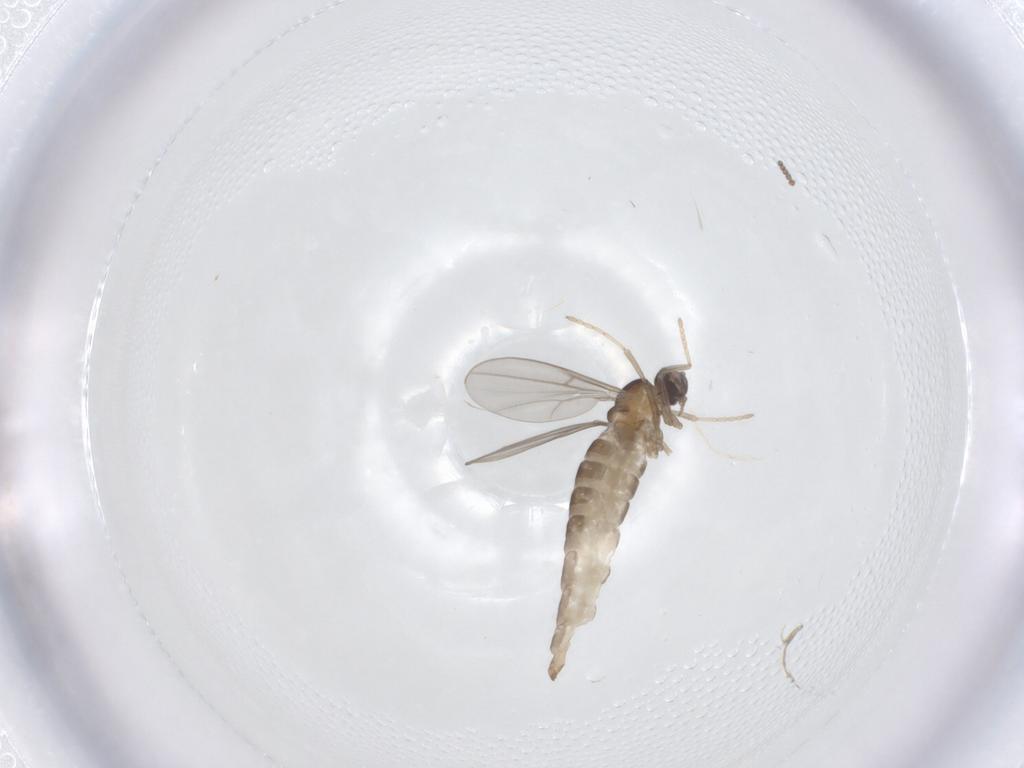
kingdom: Animalia
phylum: Arthropoda
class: Insecta
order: Diptera
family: Cecidomyiidae
